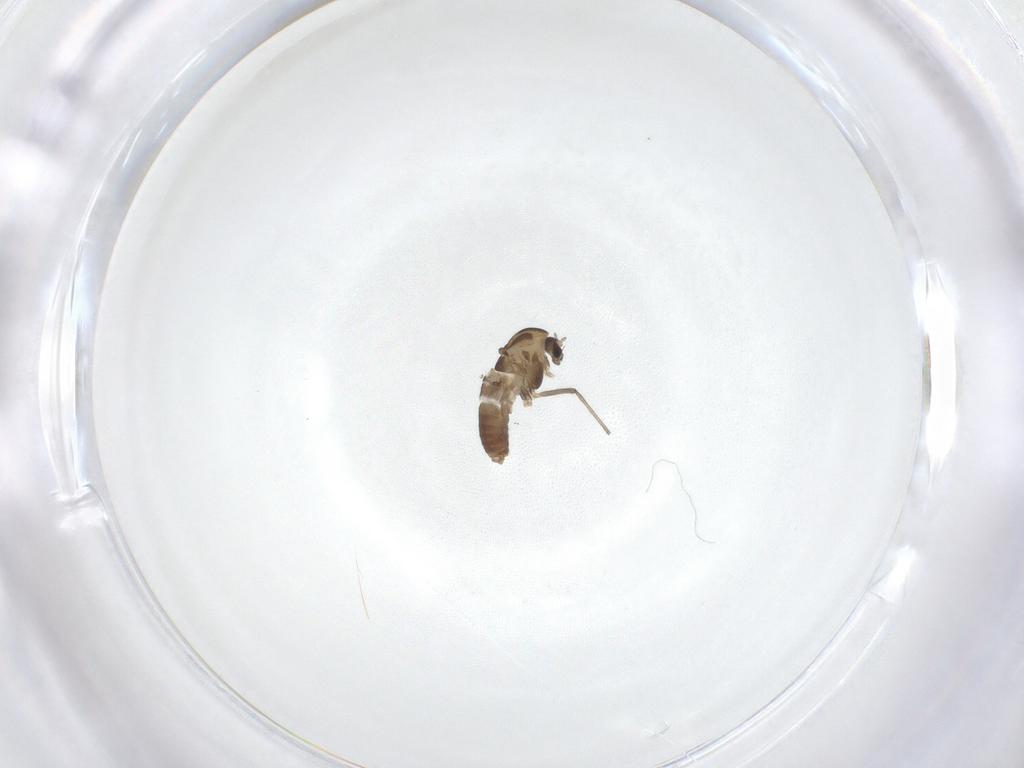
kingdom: Animalia
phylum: Arthropoda
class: Insecta
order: Diptera
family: Chironomidae
